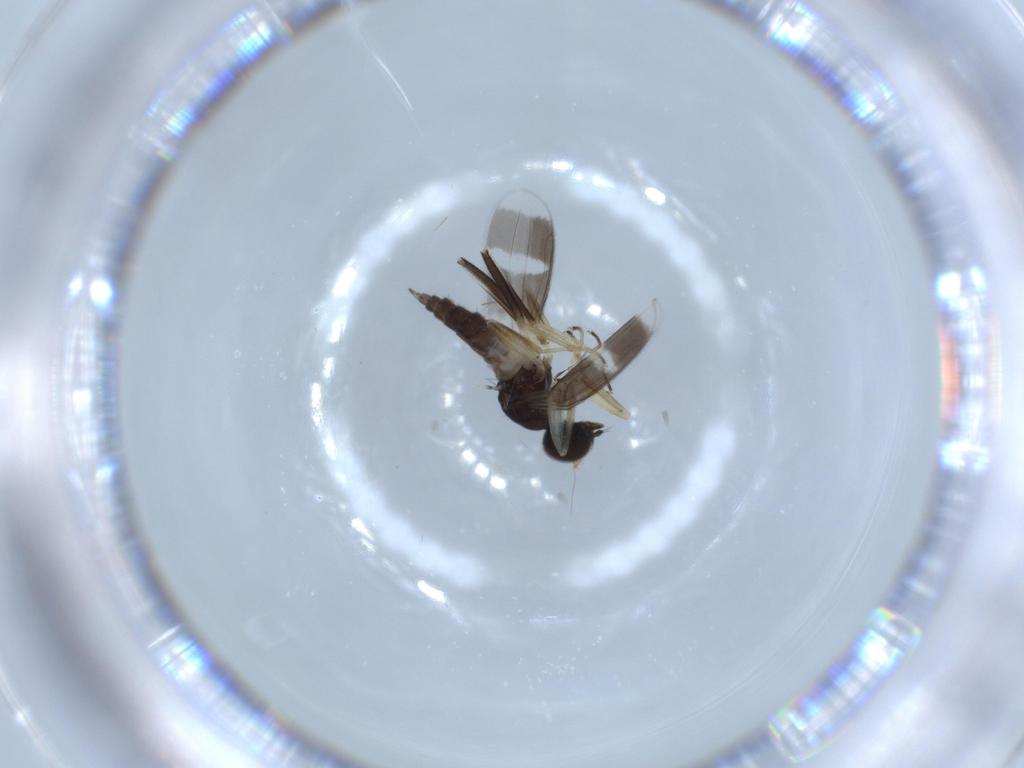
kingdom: Animalia
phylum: Arthropoda
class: Insecta
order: Diptera
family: Hybotidae
